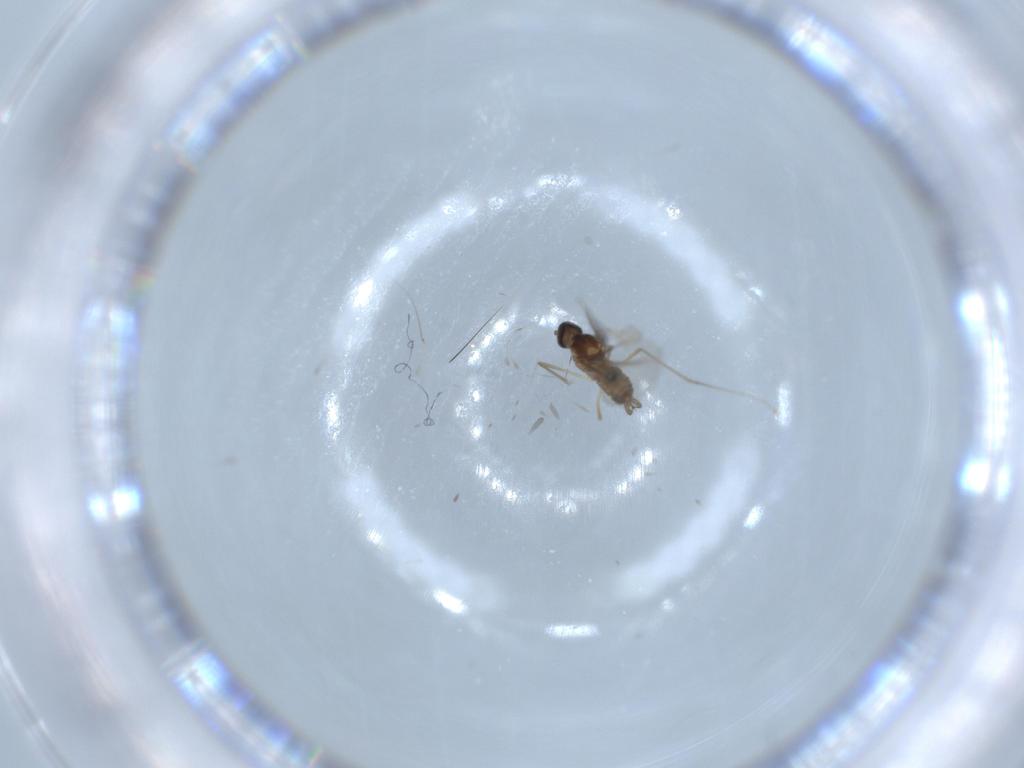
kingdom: Animalia
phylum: Arthropoda
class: Insecta
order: Diptera
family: Cecidomyiidae
